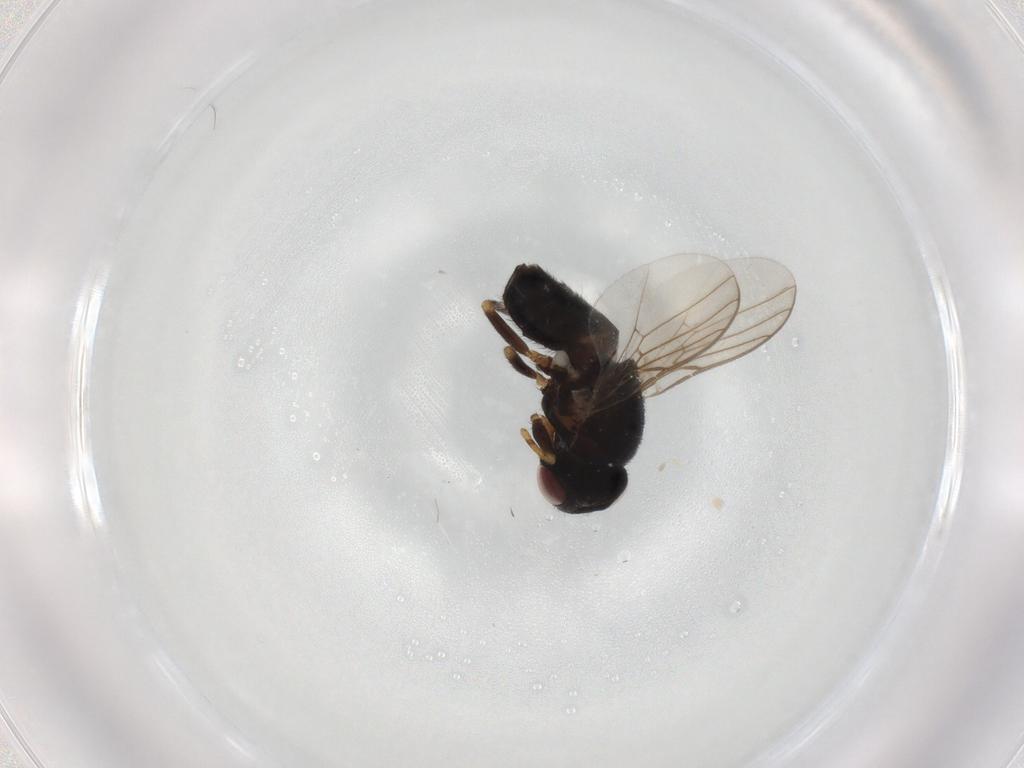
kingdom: Animalia
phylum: Arthropoda
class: Insecta
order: Diptera
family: Chloropidae
